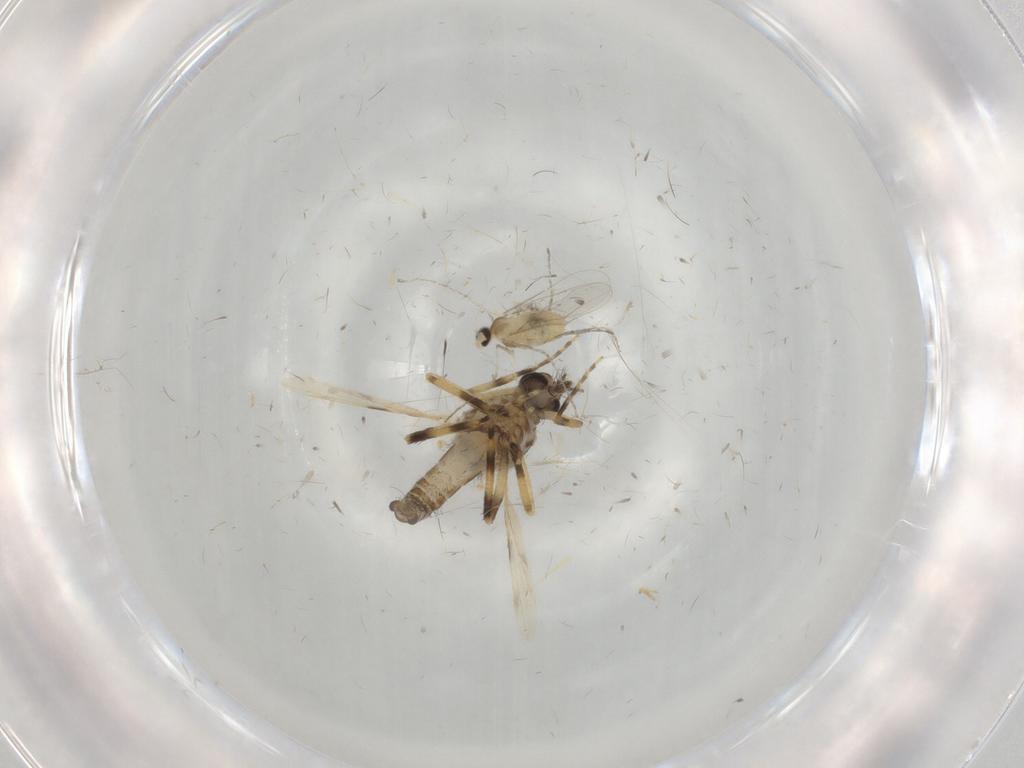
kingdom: Animalia
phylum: Arthropoda
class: Insecta
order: Diptera
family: Ceratopogonidae
